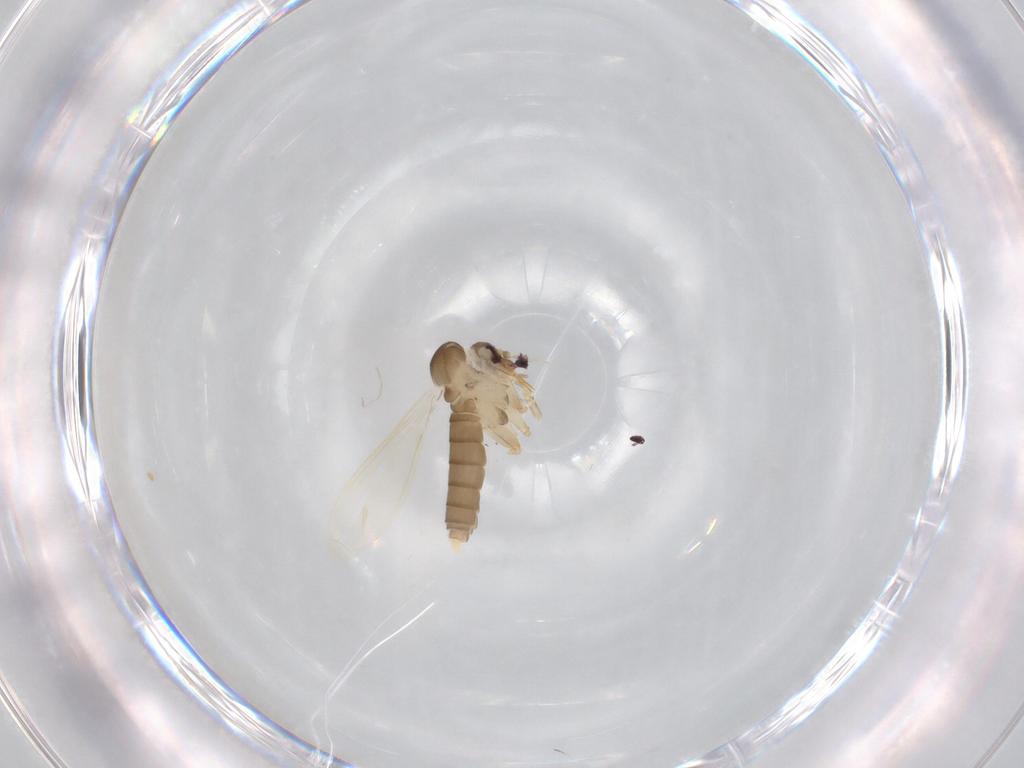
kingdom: Animalia
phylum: Arthropoda
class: Insecta
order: Diptera
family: Psychodidae
